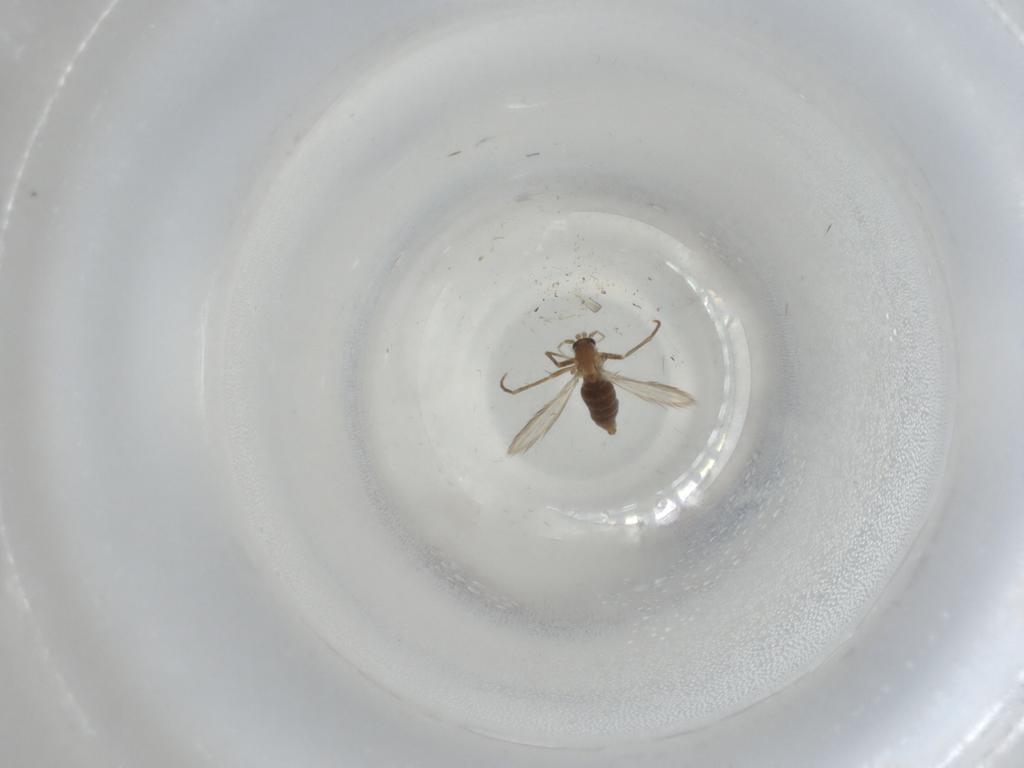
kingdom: Animalia
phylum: Arthropoda
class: Insecta
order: Diptera
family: Psychodidae
